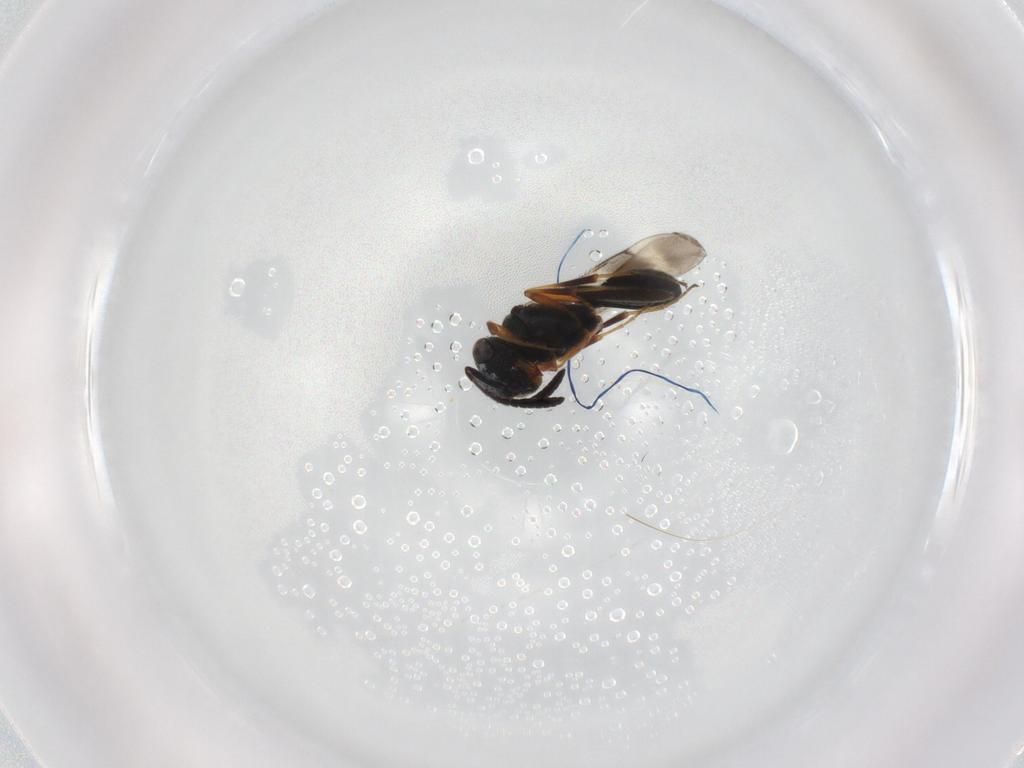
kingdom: Animalia
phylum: Arthropoda
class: Insecta
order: Hymenoptera
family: Scelionidae
